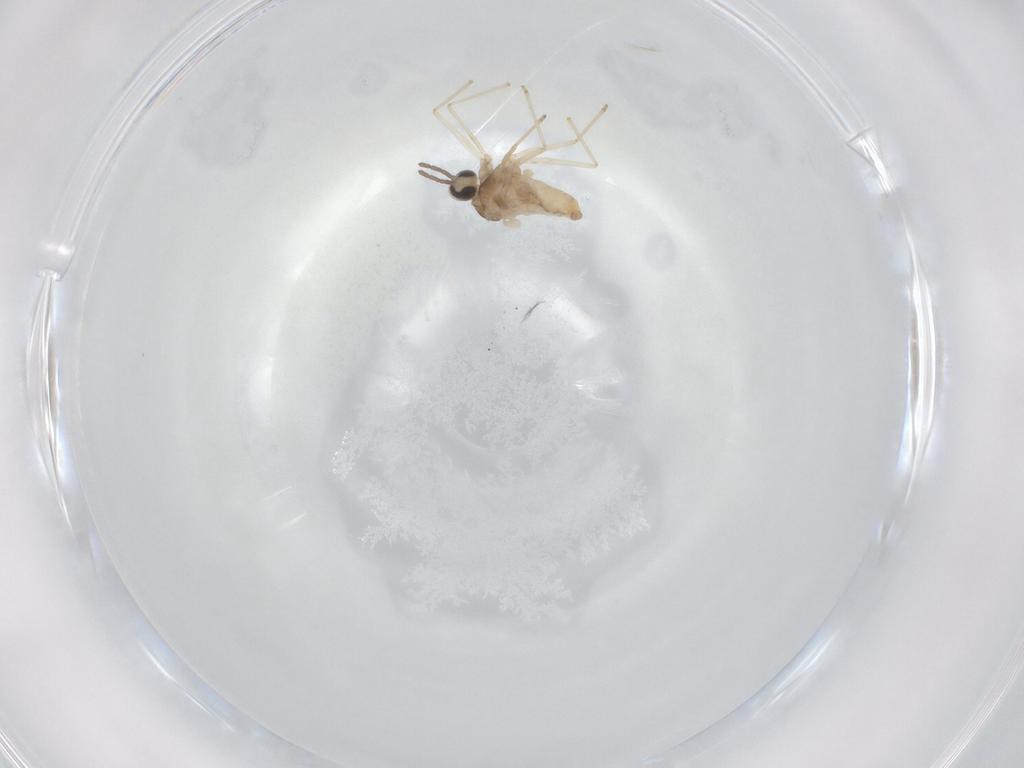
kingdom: Animalia
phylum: Arthropoda
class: Insecta
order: Diptera
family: Cecidomyiidae
